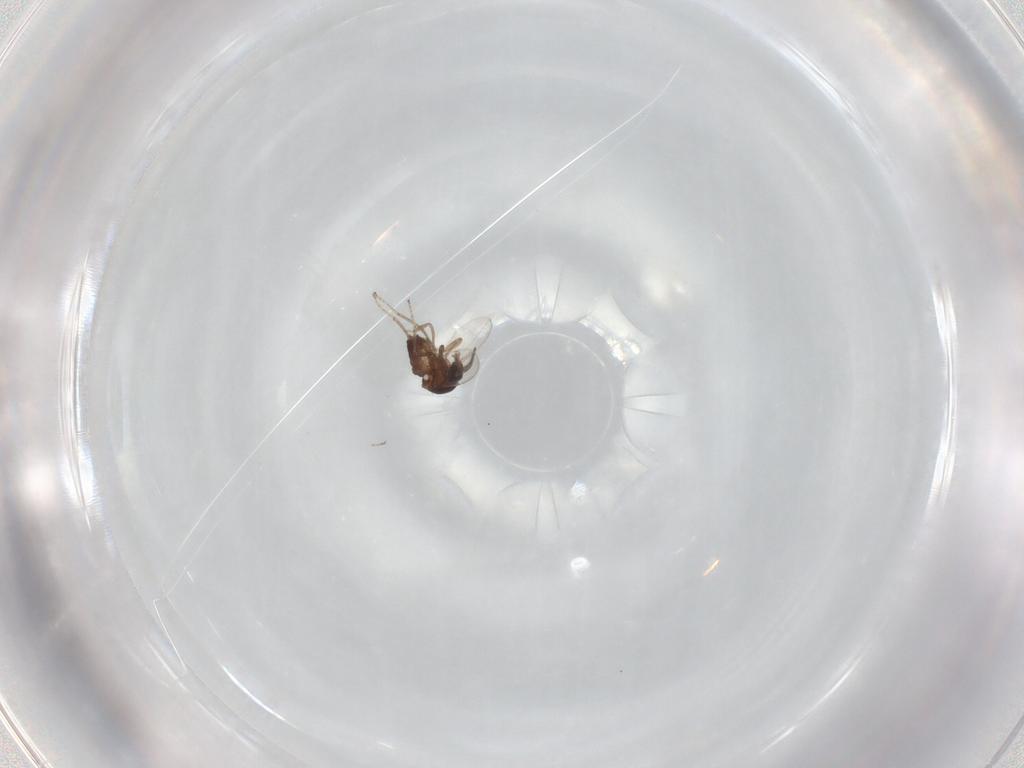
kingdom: Animalia
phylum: Arthropoda
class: Insecta
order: Diptera
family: Ceratopogonidae
